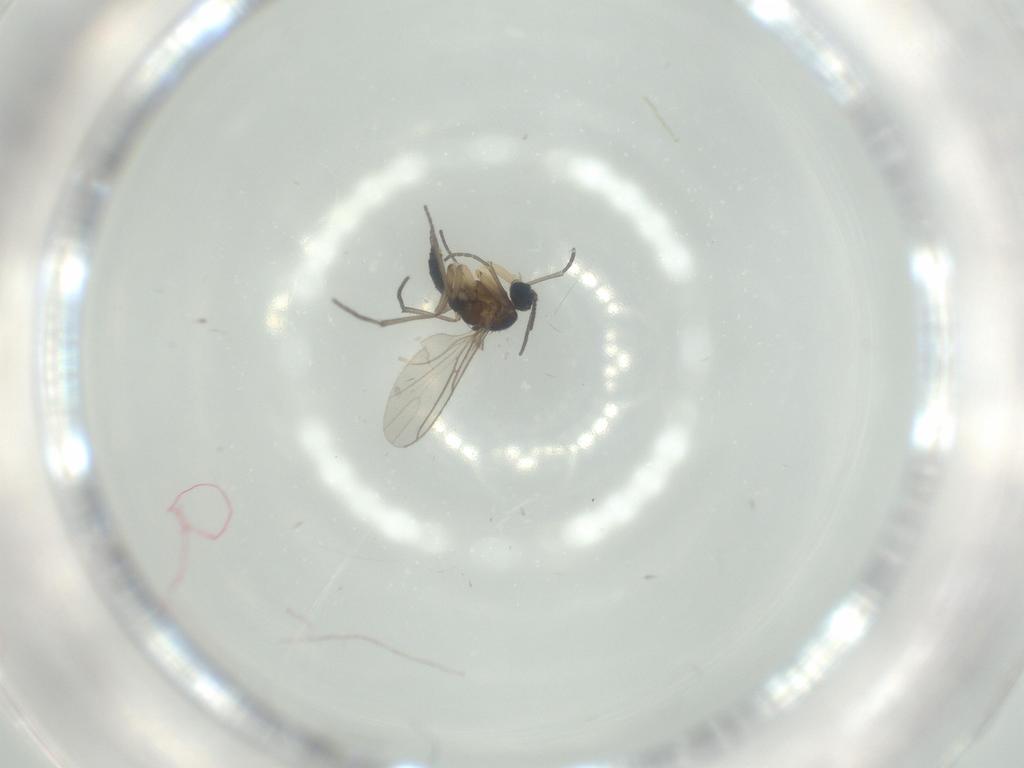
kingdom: Animalia
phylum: Arthropoda
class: Insecta
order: Diptera
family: Sciaridae
